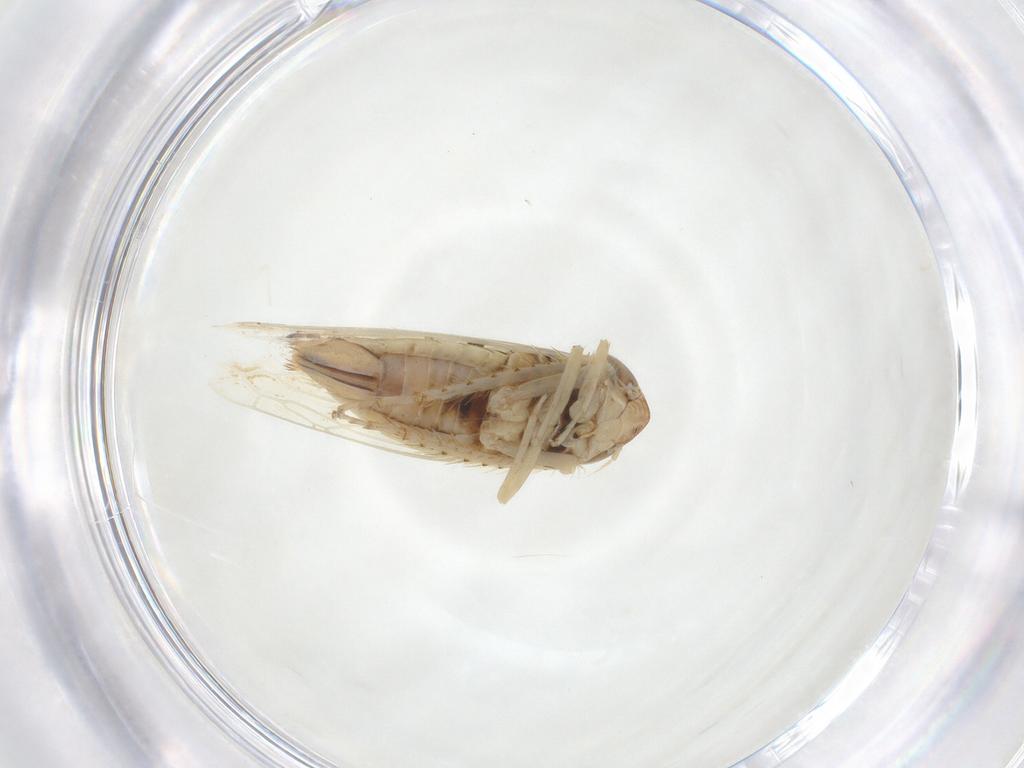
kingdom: Animalia
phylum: Arthropoda
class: Insecta
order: Hemiptera
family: Cicadellidae
